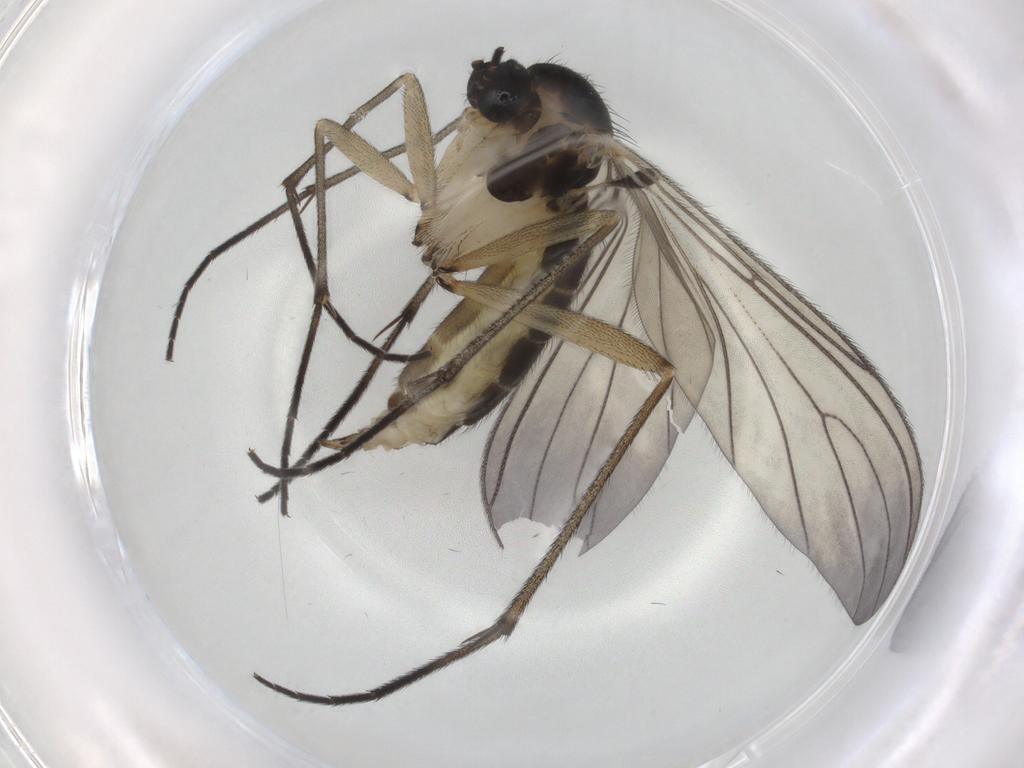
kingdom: Animalia
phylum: Arthropoda
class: Insecta
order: Diptera
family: Sciaridae
